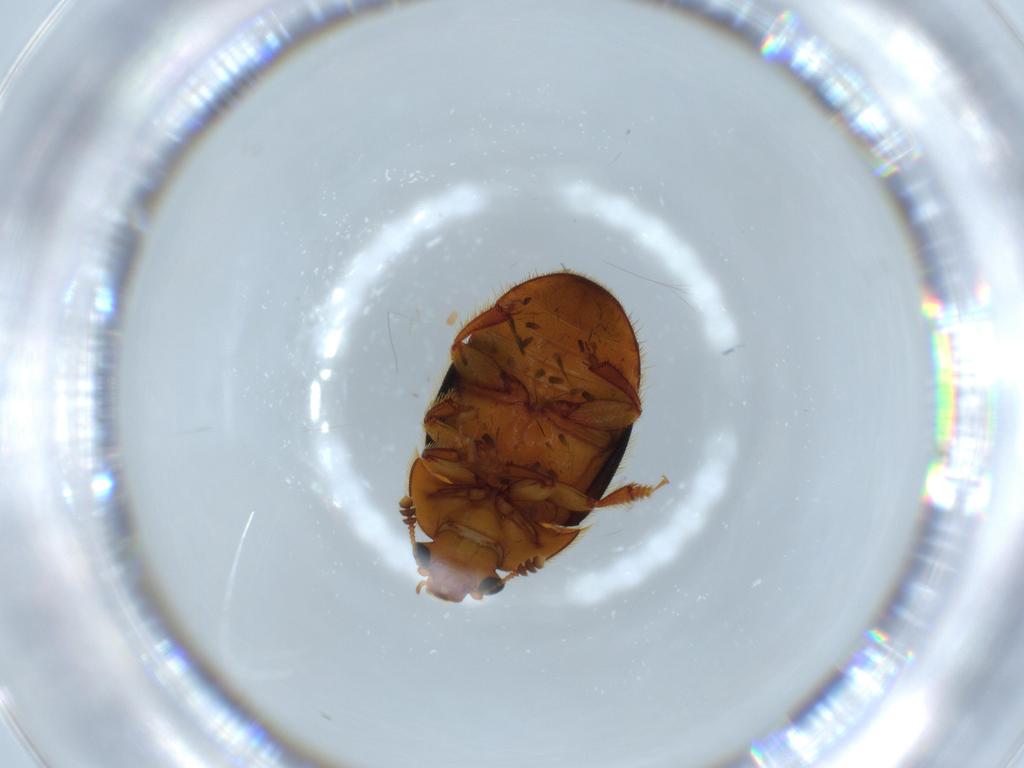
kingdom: Animalia
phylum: Arthropoda
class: Insecta
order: Coleoptera
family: Nitidulidae
